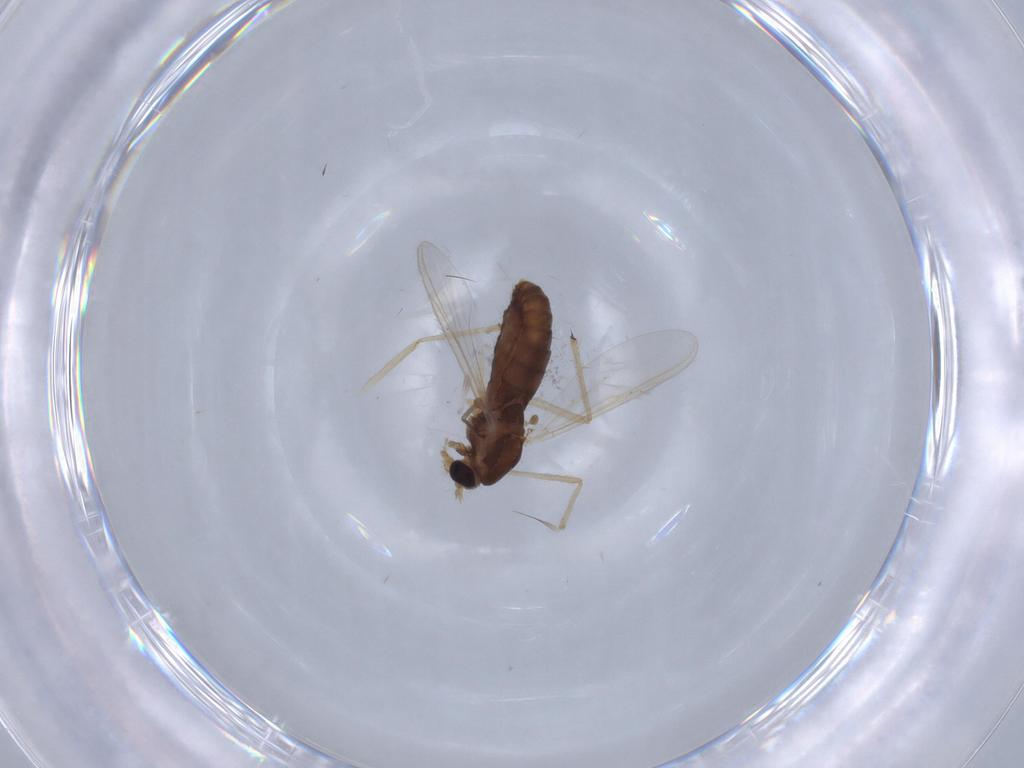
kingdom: Animalia
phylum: Arthropoda
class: Insecta
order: Diptera
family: Chironomidae
